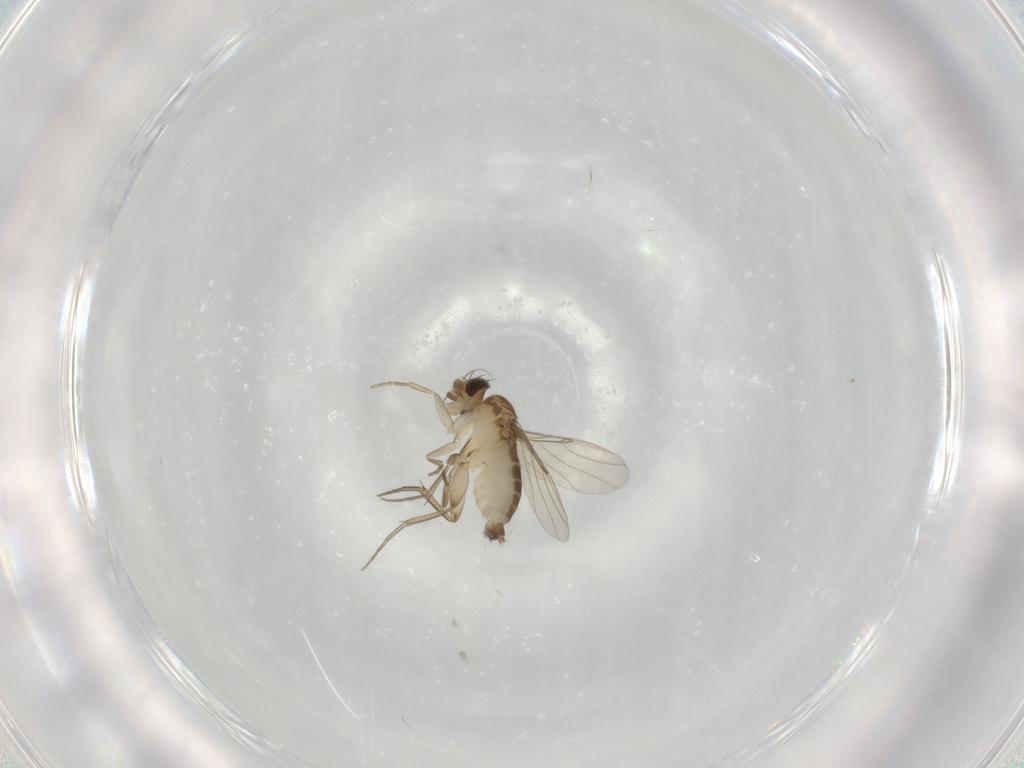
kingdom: Animalia
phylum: Arthropoda
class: Insecta
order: Diptera
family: Phoridae
